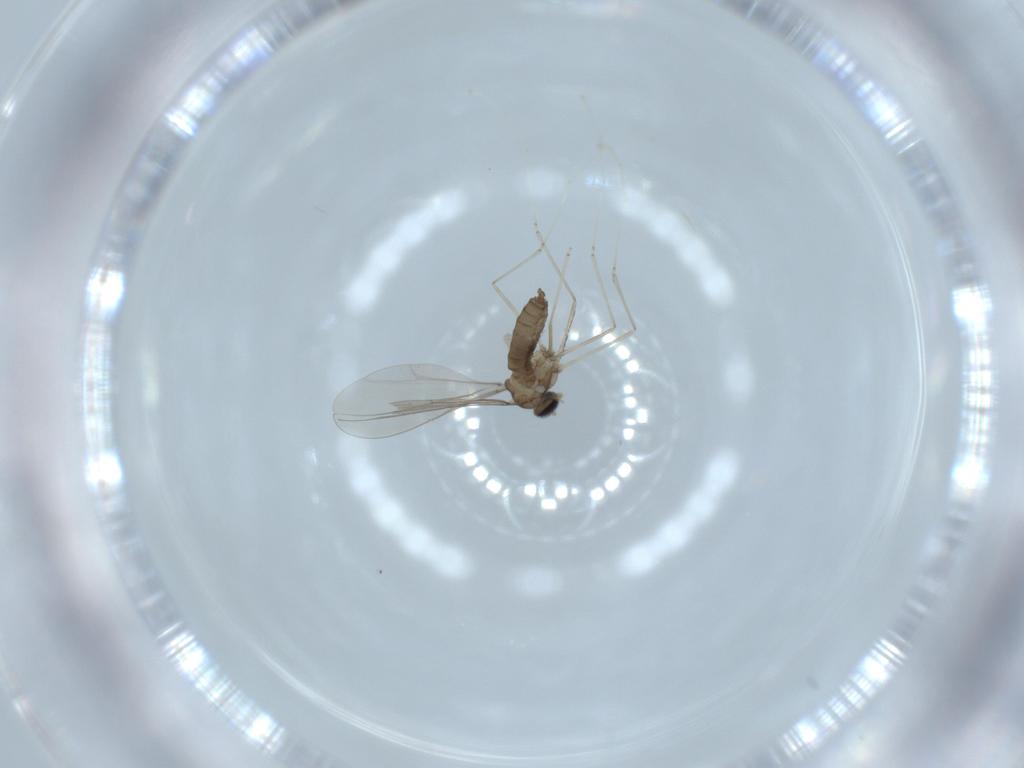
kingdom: Animalia
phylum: Arthropoda
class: Insecta
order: Diptera
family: Cecidomyiidae
